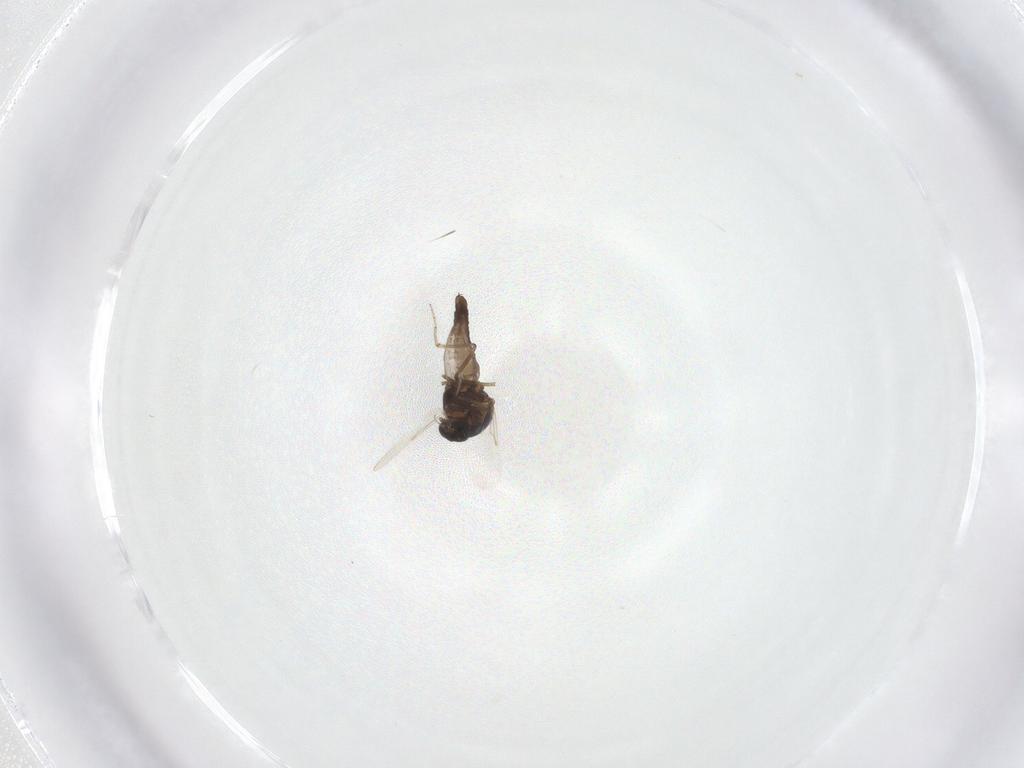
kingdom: Animalia
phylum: Arthropoda
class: Insecta
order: Diptera
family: Ceratopogonidae
